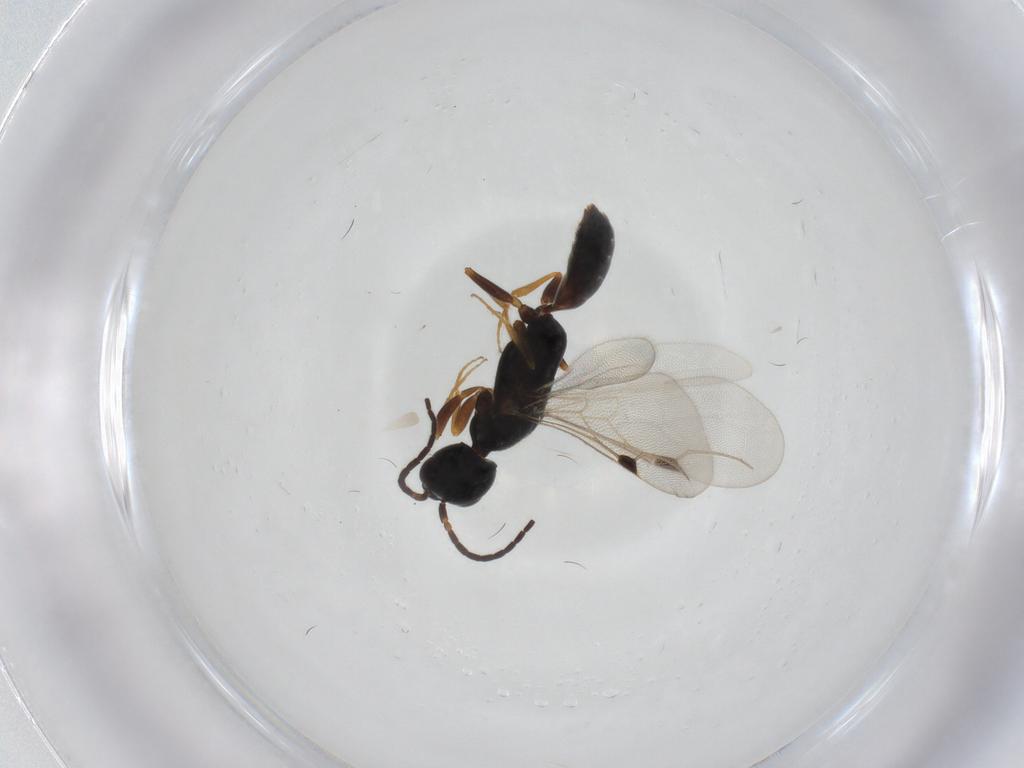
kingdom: Animalia
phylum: Arthropoda
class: Insecta
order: Hymenoptera
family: Bethylidae
